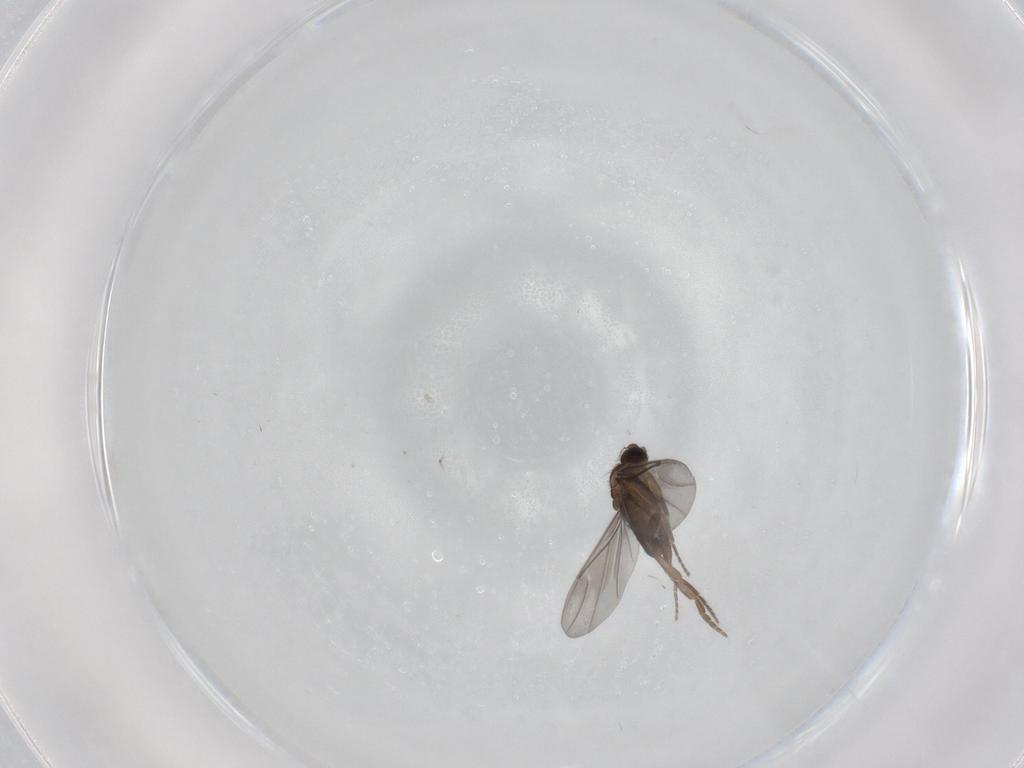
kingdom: Animalia
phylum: Arthropoda
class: Insecta
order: Diptera
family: Phoridae
